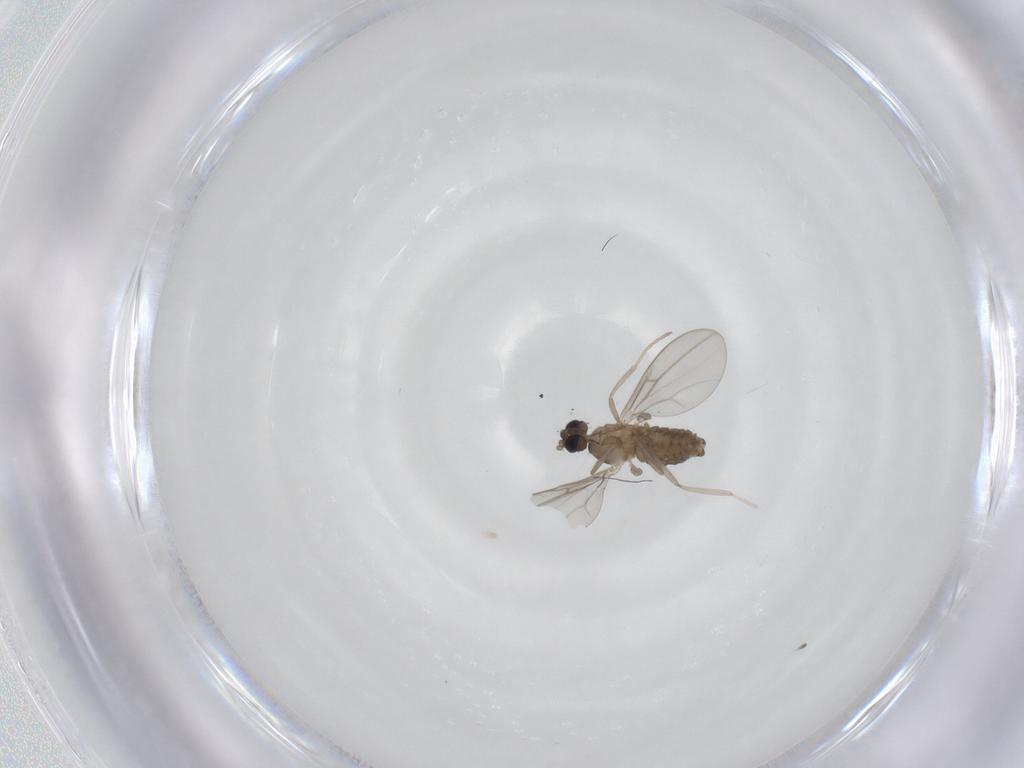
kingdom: Animalia
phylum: Arthropoda
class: Insecta
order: Diptera
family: Cecidomyiidae
